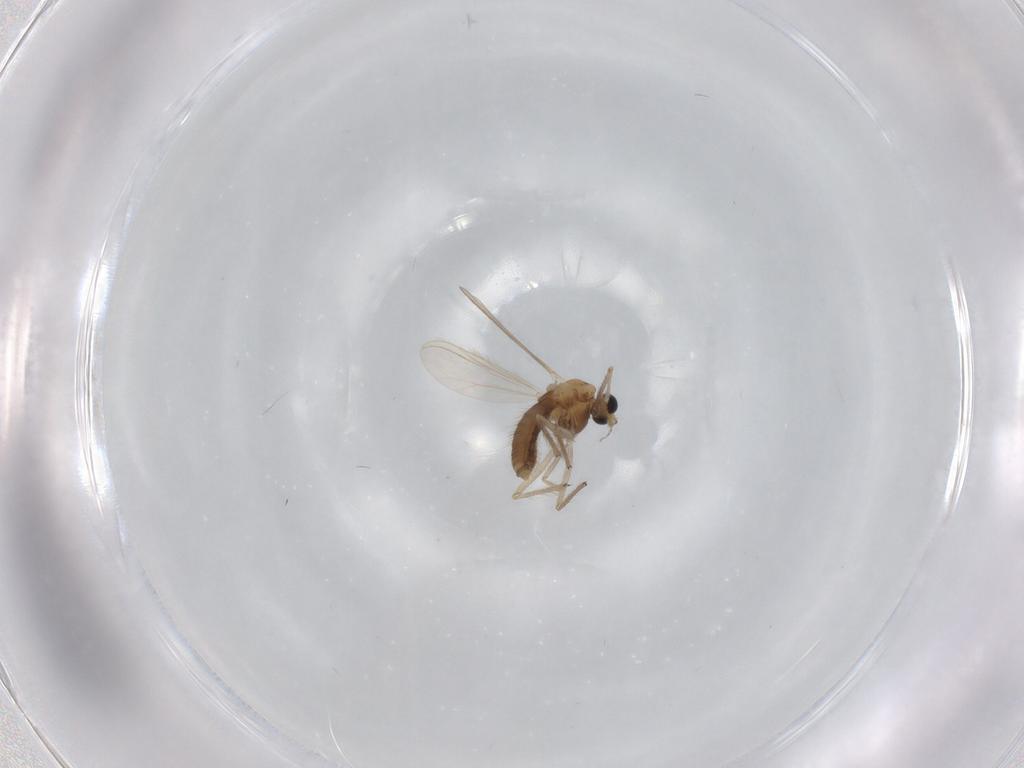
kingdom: Animalia
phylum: Arthropoda
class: Insecta
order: Diptera
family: Chironomidae
